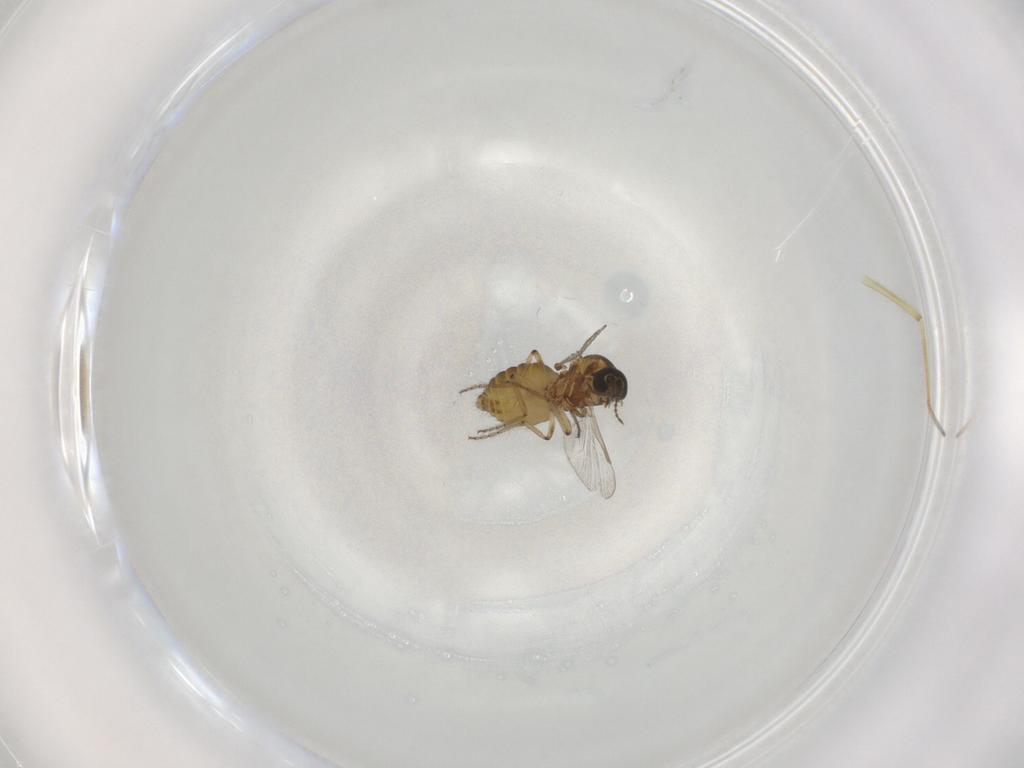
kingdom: Animalia
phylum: Arthropoda
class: Insecta
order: Diptera
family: Ceratopogonidae
